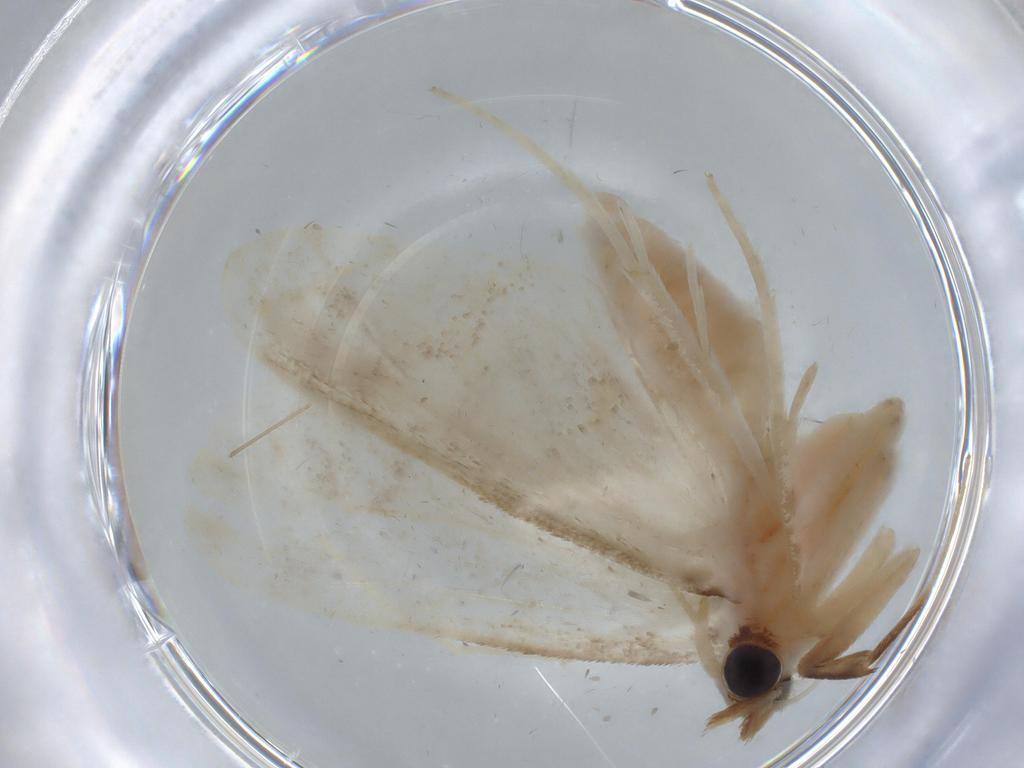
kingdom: Animalia
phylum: Arthropoda
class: Insecta
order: Lepidoptera
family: Crambidae
